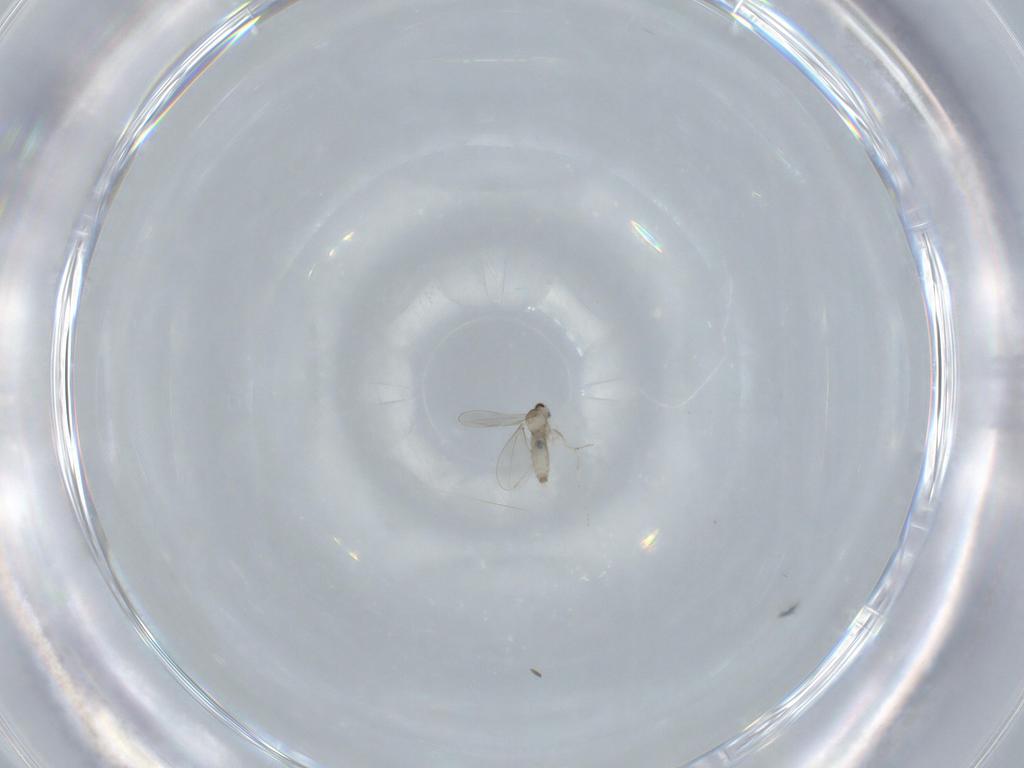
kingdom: Animalia
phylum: Arthropoda
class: Insecta
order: Diptera
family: Cecidomyiidae
